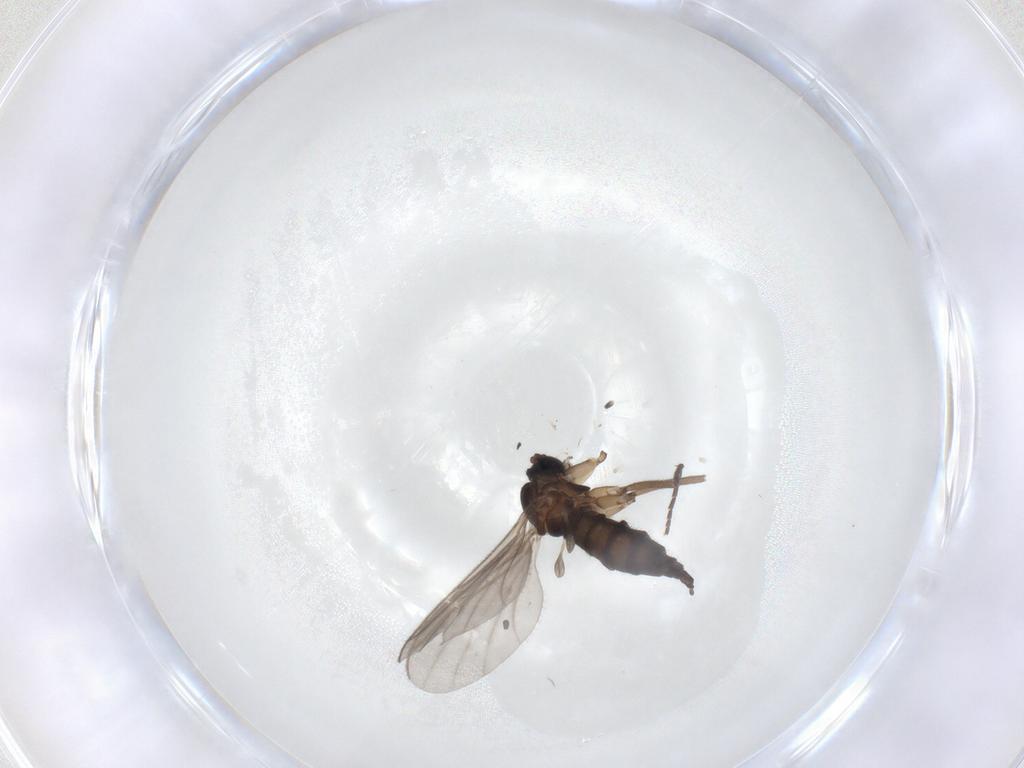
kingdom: Animalia
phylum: Arthropoda
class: Insecta
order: Diptera
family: Sciaridae
